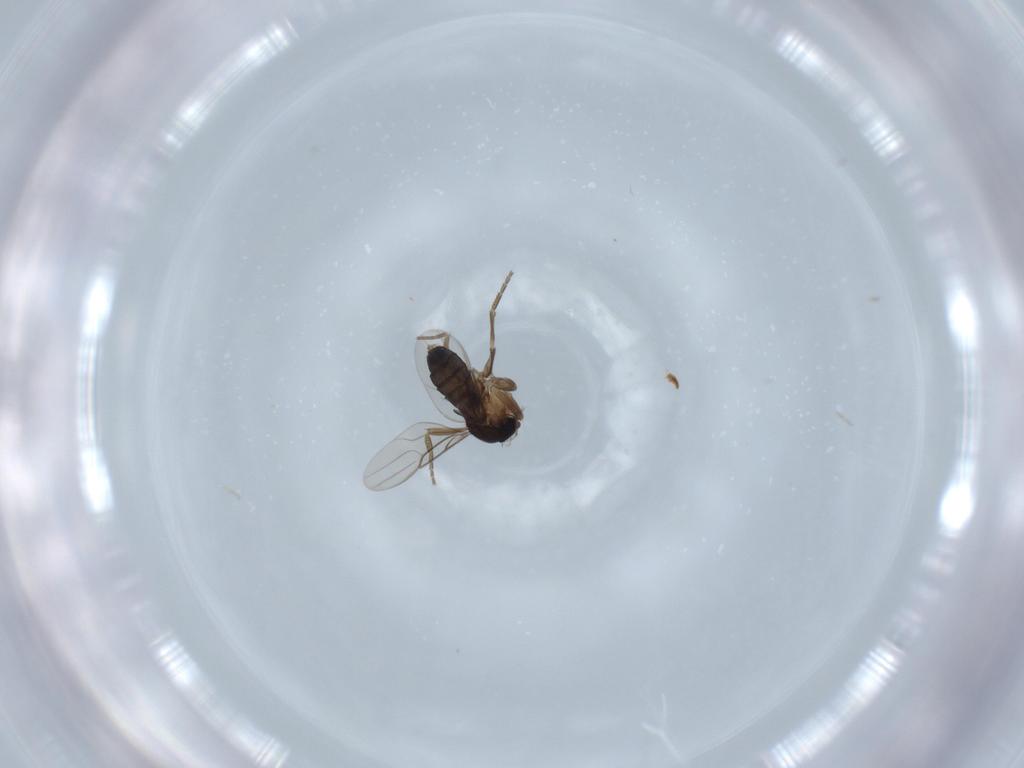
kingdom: Animalia
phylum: Arthropoda
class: Insecta
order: Diptera
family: Phoridae
